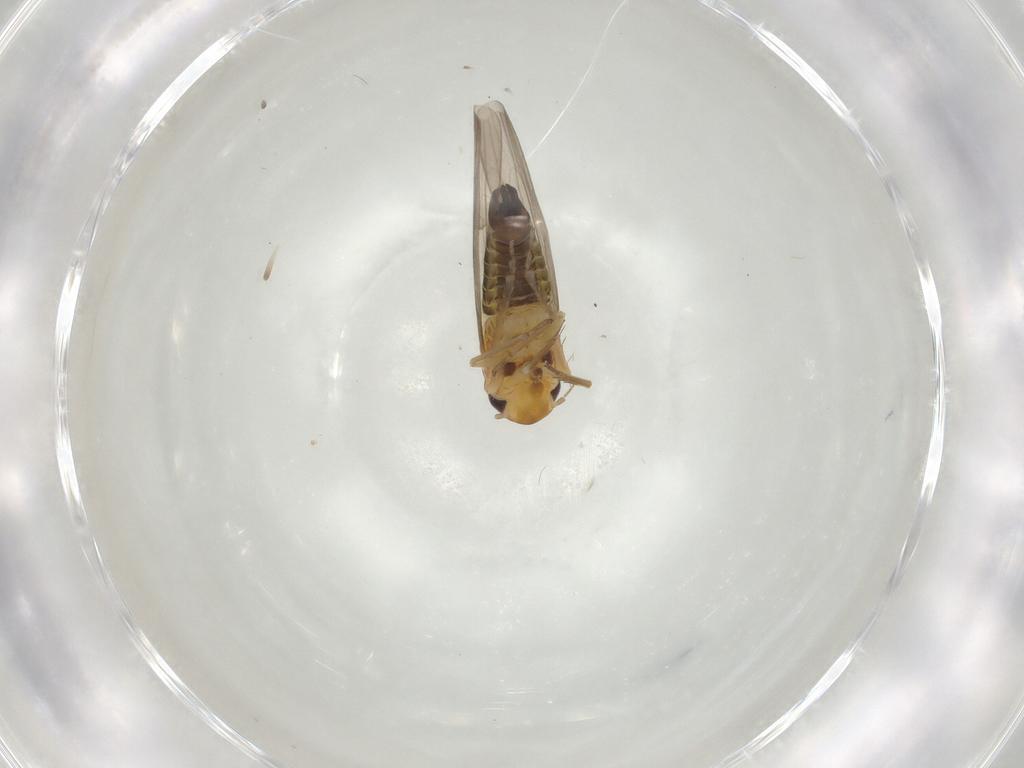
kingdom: Animalia
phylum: Arthropoda
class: Insecta
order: Hemiptera
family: Cicadellidae
